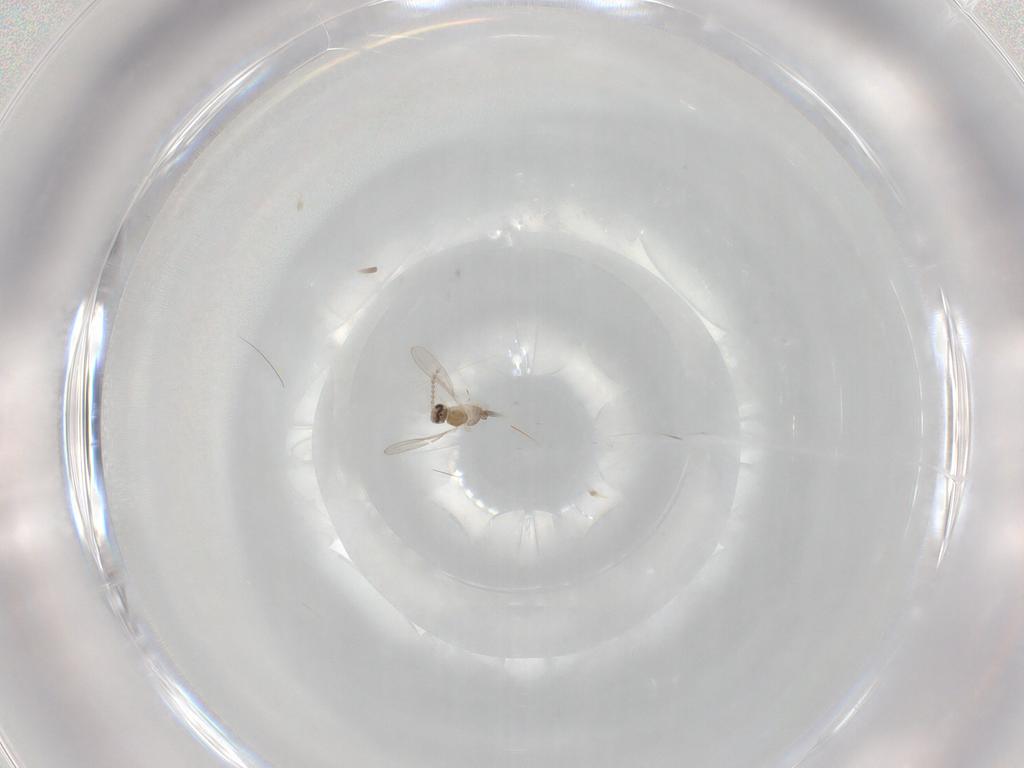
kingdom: Animalia
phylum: Arthropoda
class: Insecta
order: Diptera
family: Cecidomyiidae
